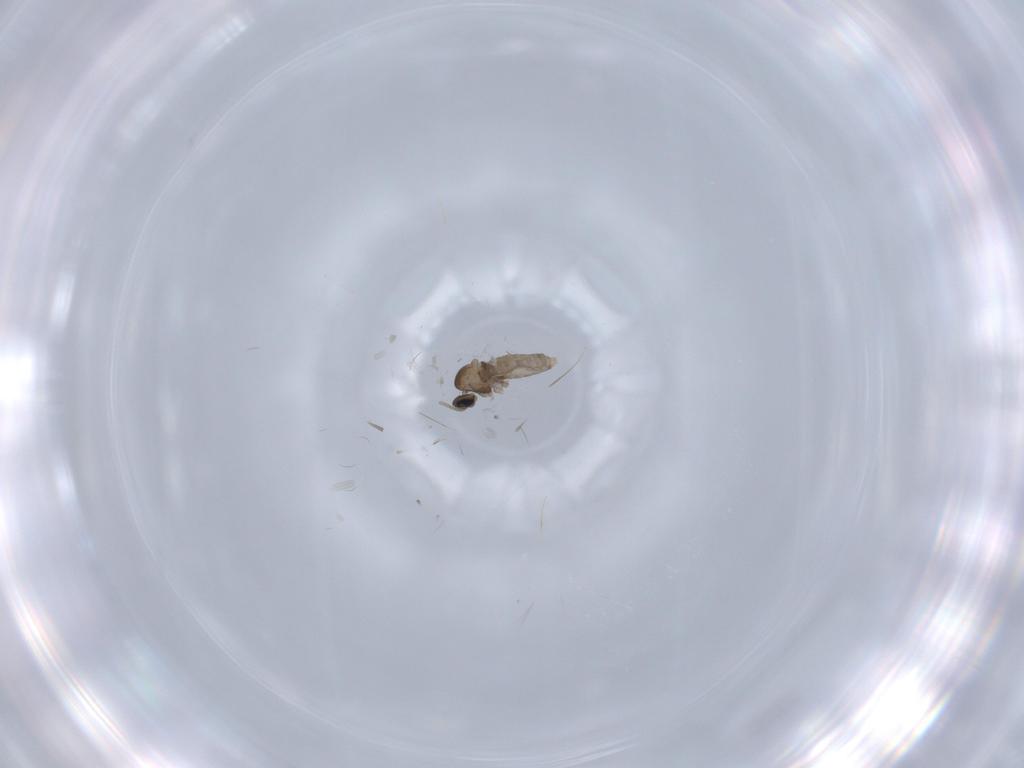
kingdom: Animalia
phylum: Arthropoda
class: Insecta
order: Diptera
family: Cecidomyiidae
